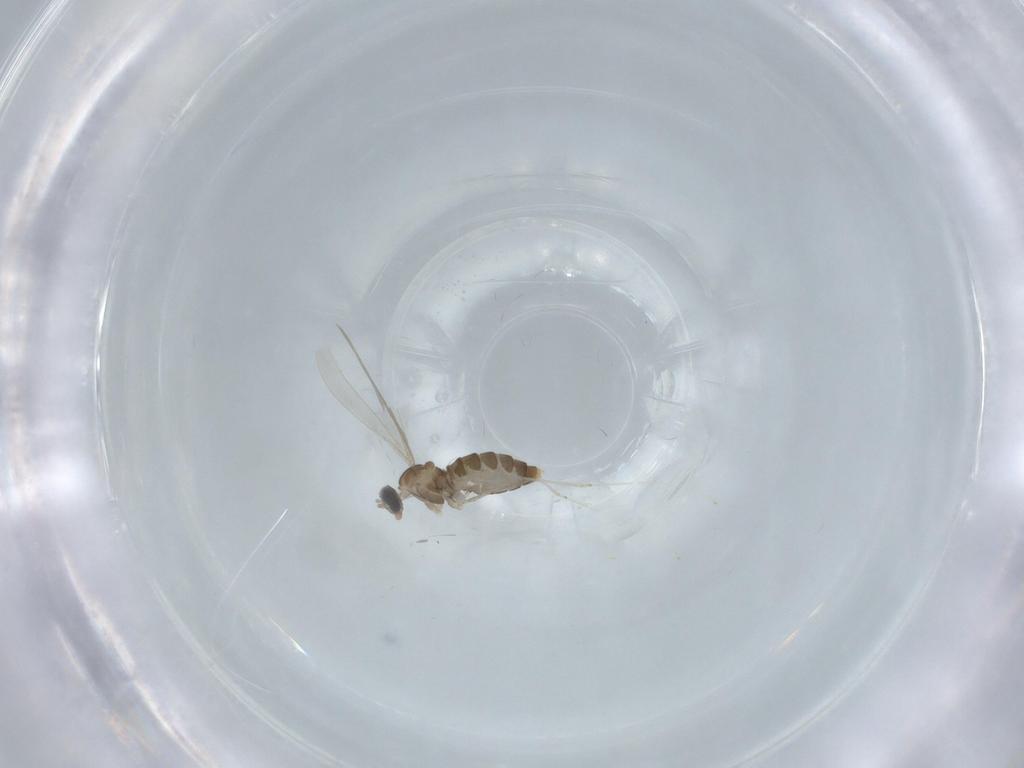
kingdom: Animalia
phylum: Arthropoda
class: Insecta
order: Diptera
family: Cecidomyiidae
